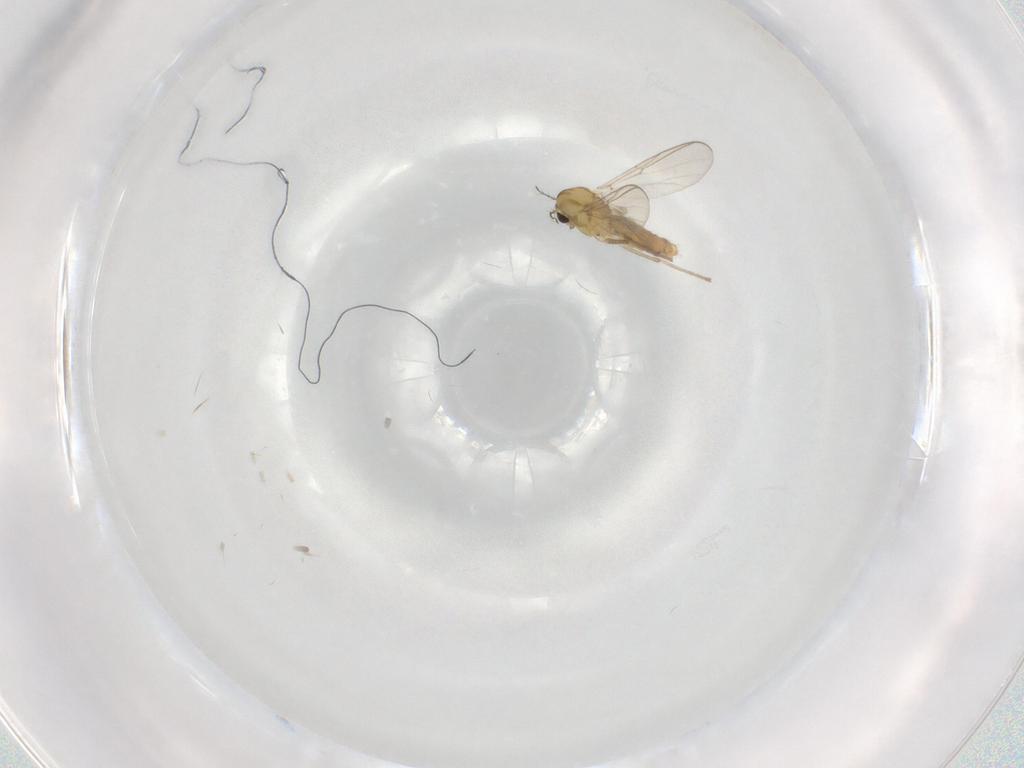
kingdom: Animalia
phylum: Arthropoda
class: Insecta
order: Diptera
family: Chironomidae
